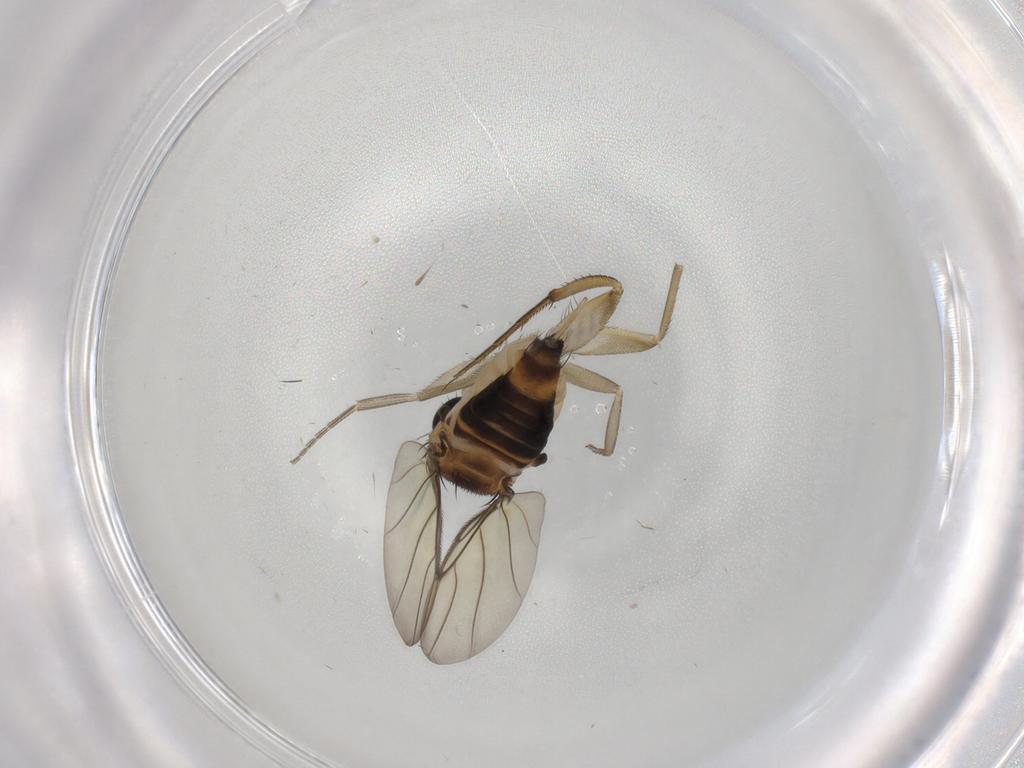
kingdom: Animalia
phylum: Arthropoda
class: Insecta
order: Diptera
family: Phoridae
